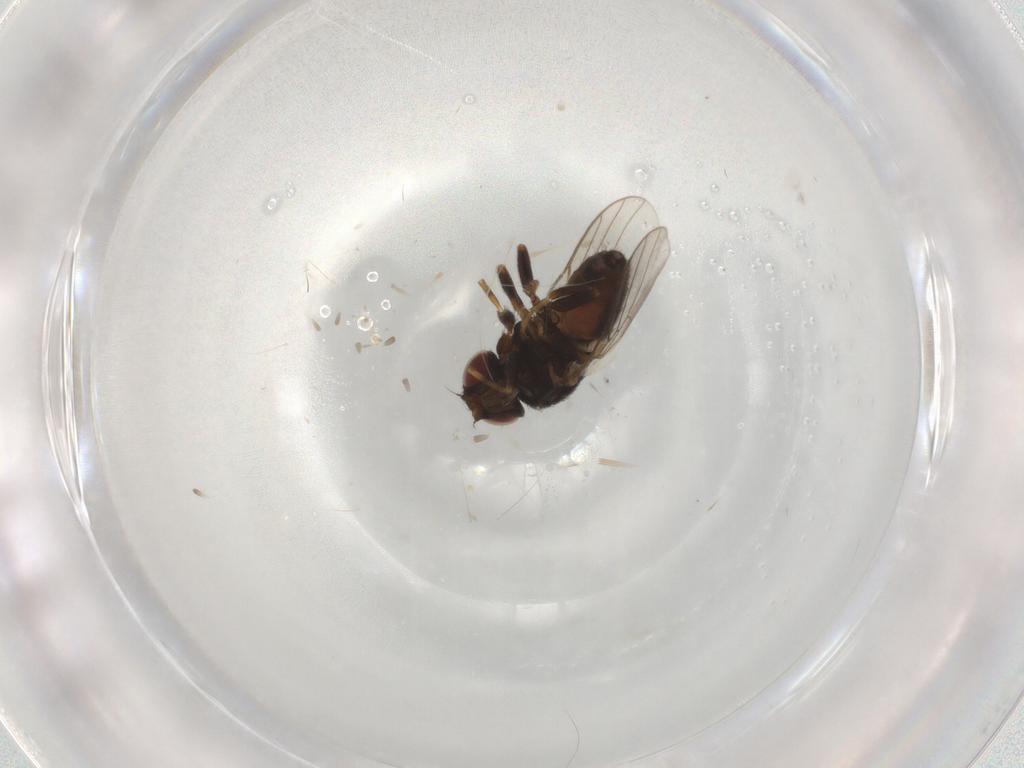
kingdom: Animalia
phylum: Arthropoda
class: Insecta
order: Diptera
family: Chloropidae
